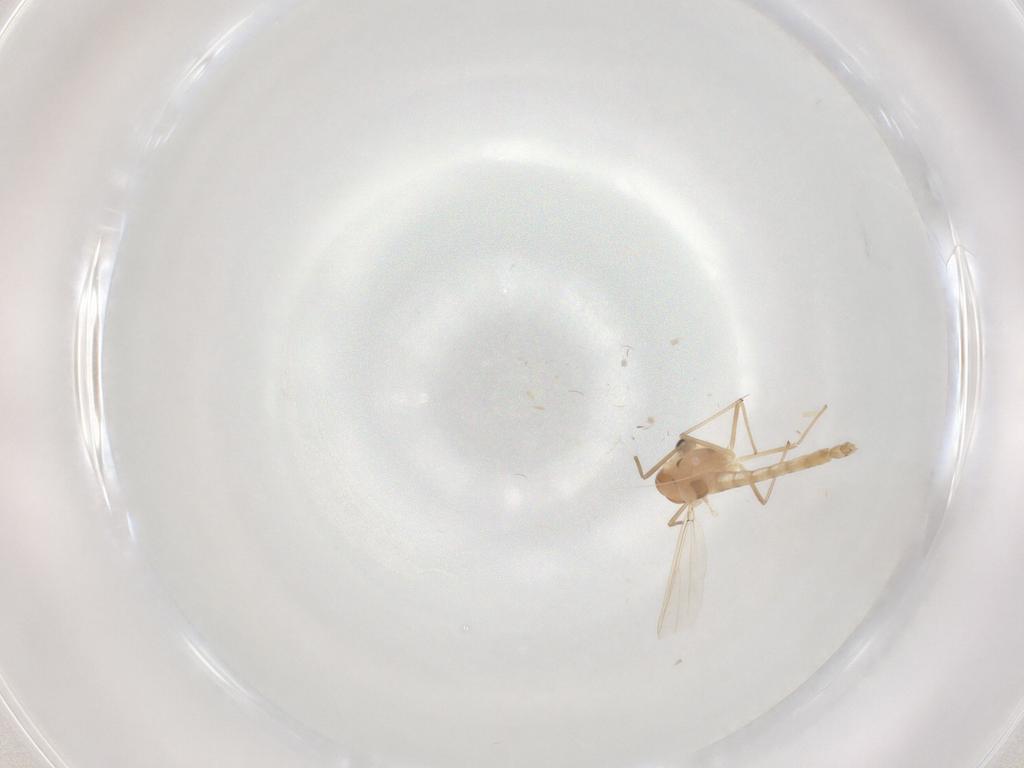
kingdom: Animalia
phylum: Arthropoda
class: Insecta
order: Diptera
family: Chironomidae
